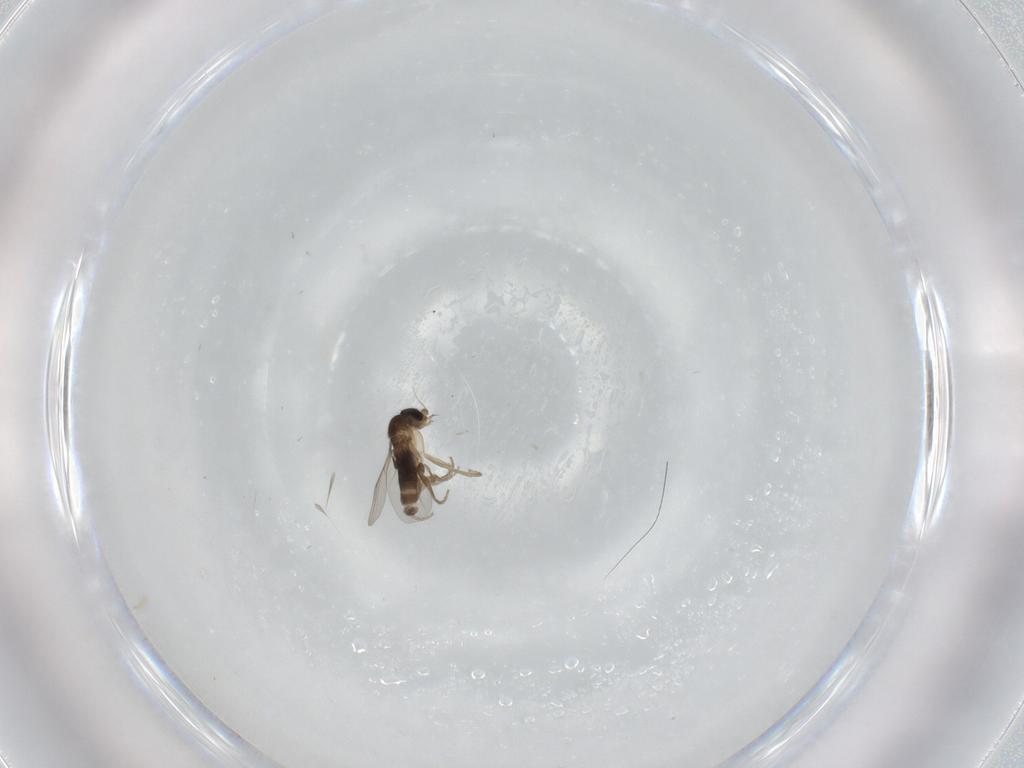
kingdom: Animalia
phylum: Arthropoda
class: Insecta
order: Diptera
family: Phoridae
